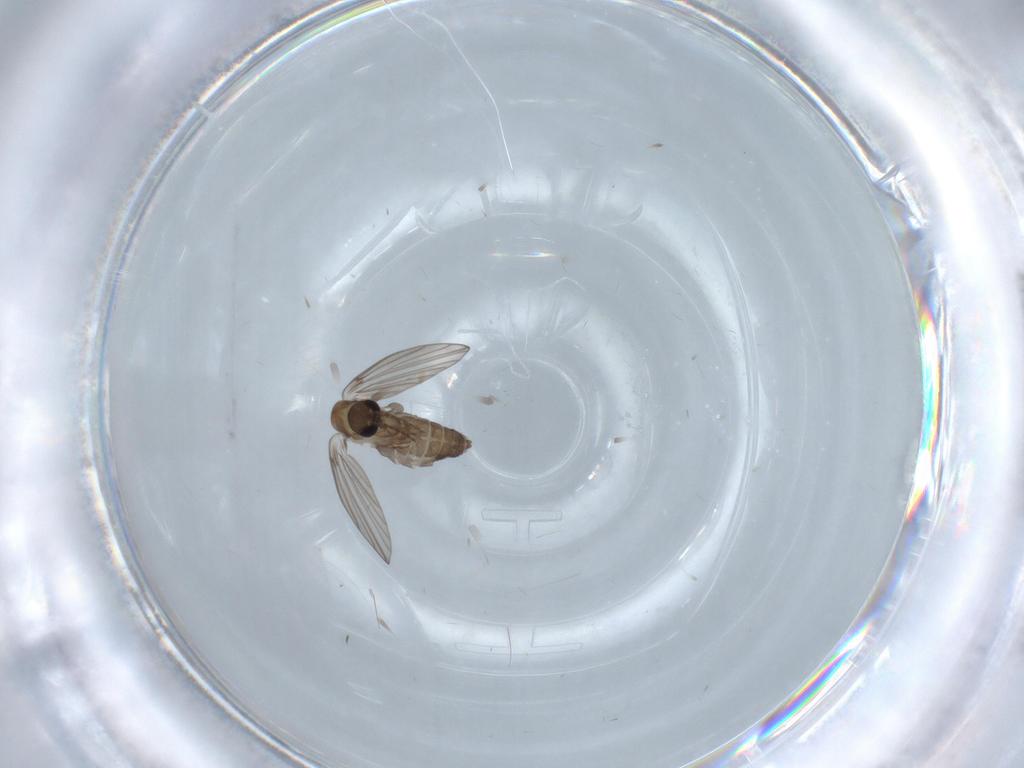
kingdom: Animalia
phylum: Arthropoda
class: Insecta
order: Diptera
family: Psychodidae
